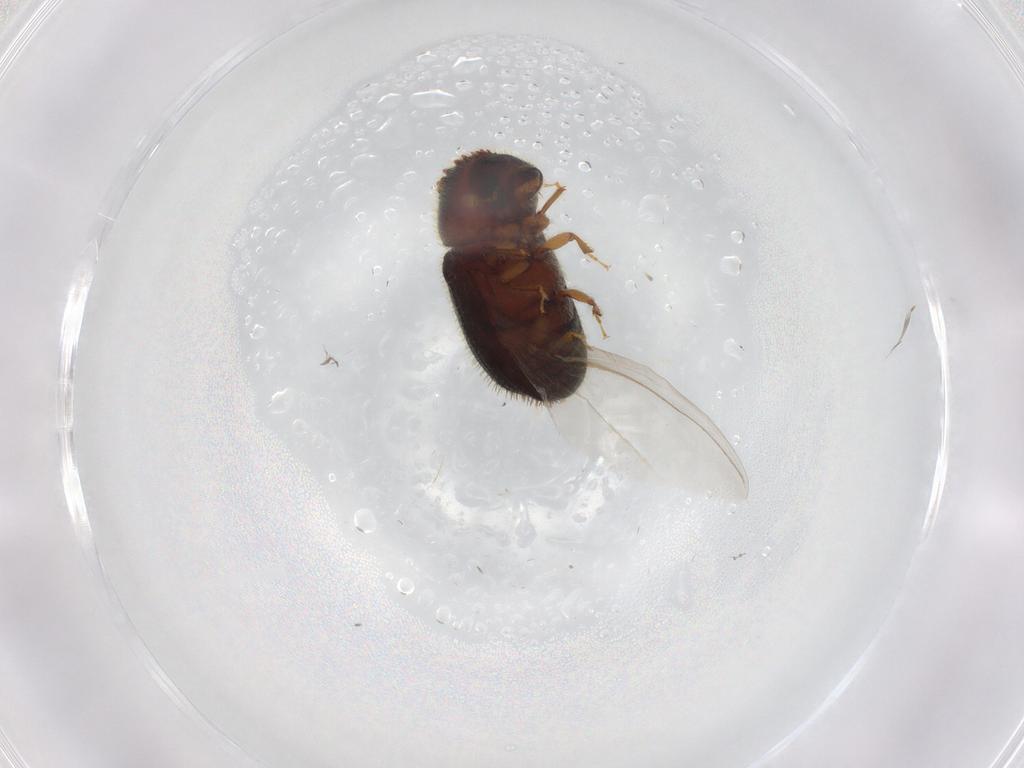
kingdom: Animalia
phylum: Arthropoda
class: Insecta
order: Coleoptera
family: Curculionidae
